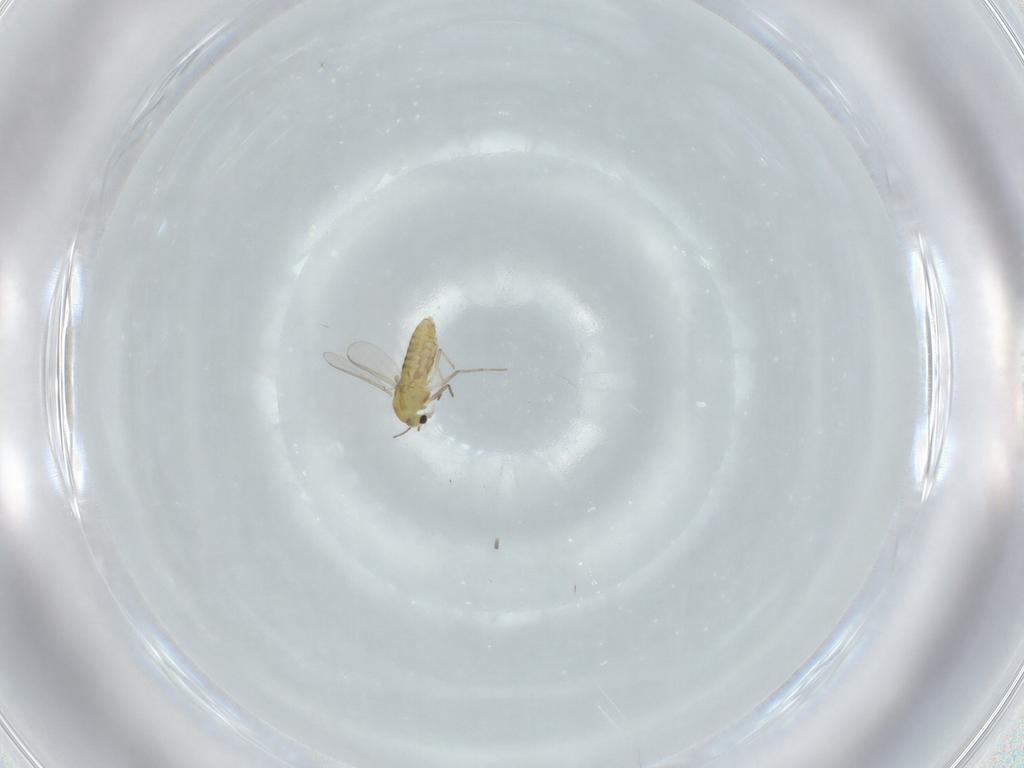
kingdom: Animalia
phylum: Arthropoda
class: Insecta
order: Diptera
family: Chironomidae
